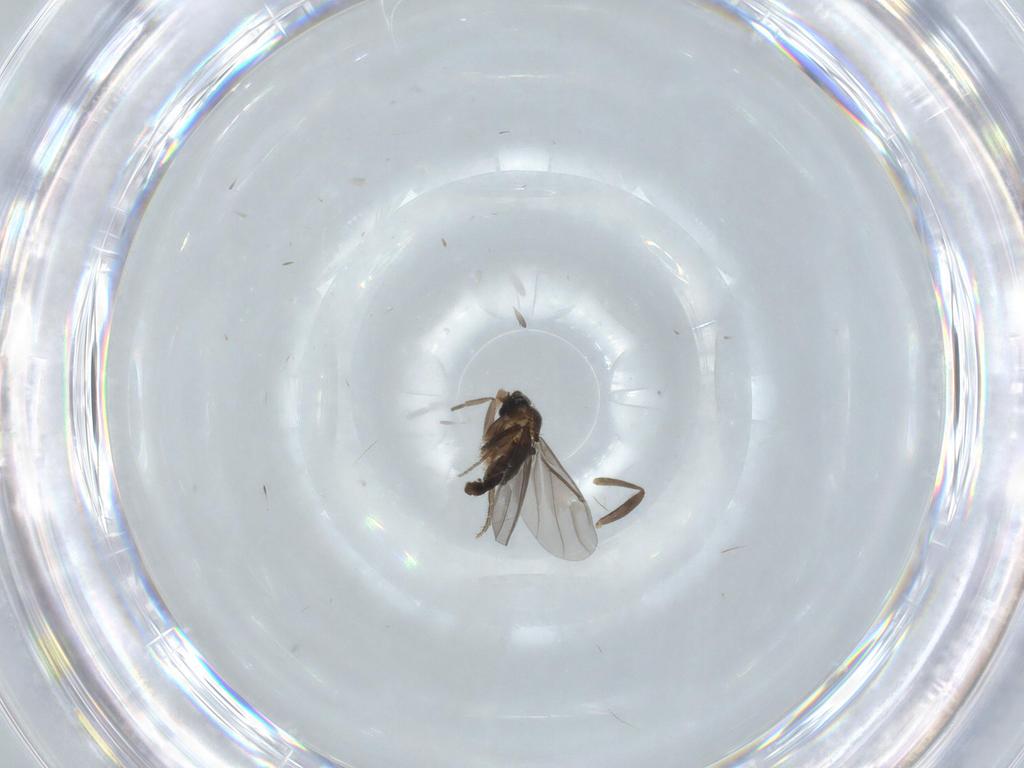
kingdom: Animalia
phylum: Arthropoda
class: Insecta
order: Diptera
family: Phoridae
